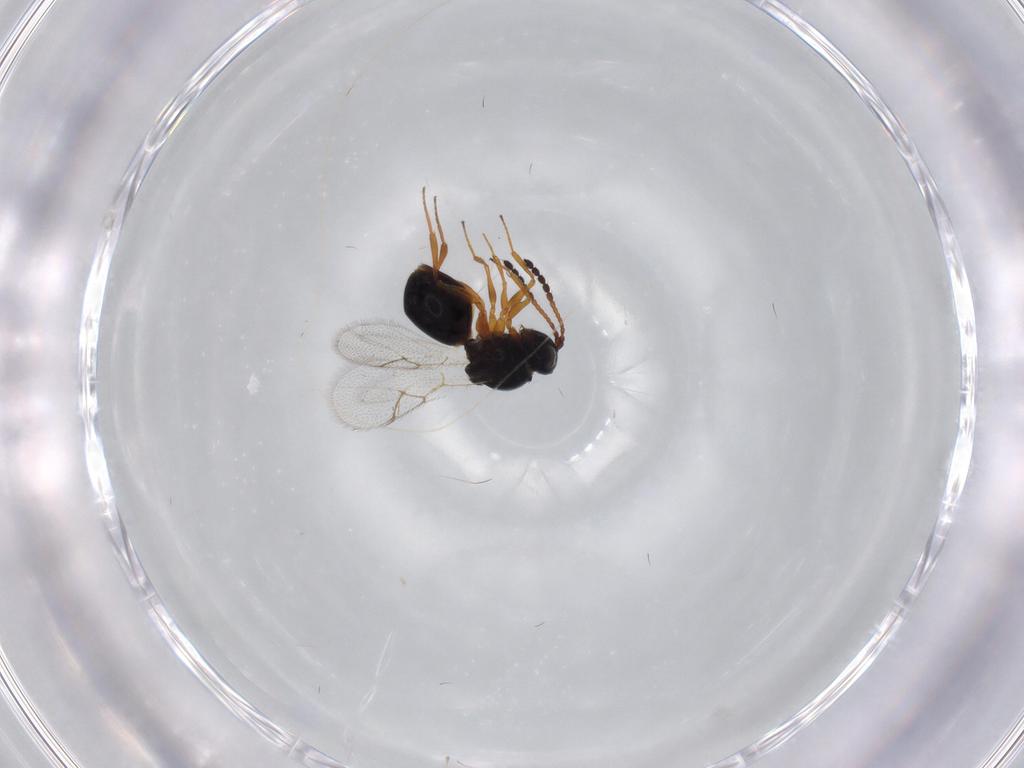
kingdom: Animalia
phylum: Arthropoda
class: Insecta
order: Hymenoptera
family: Figitidae
